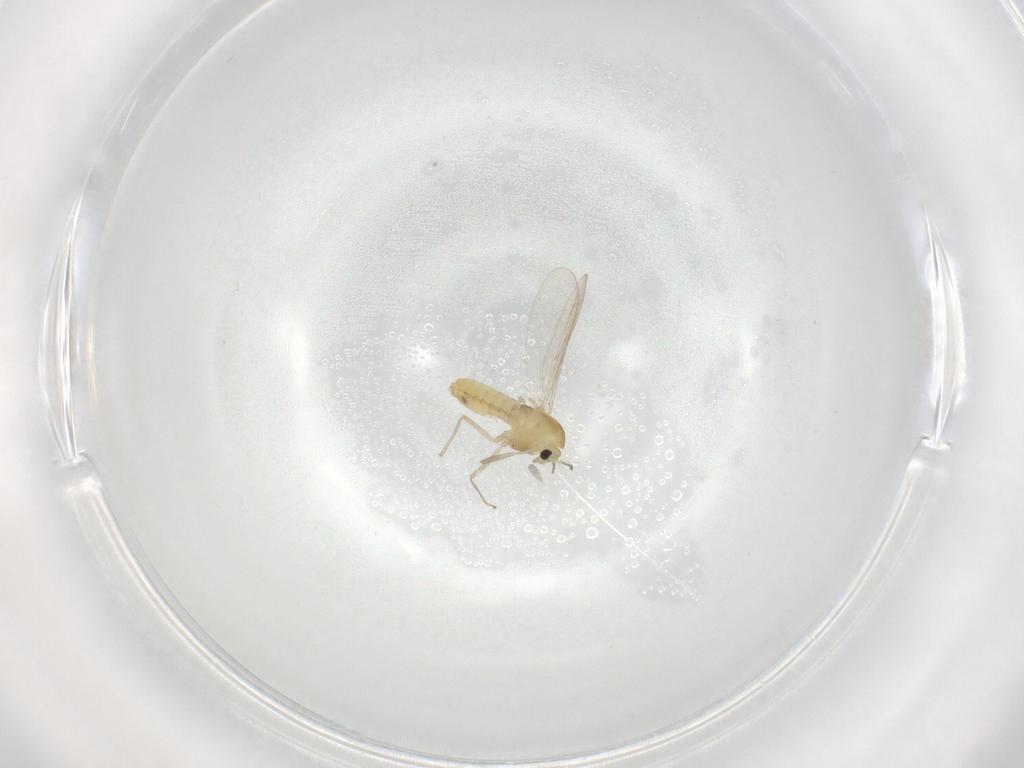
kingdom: Animalia
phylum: Arthropoda
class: Insecta
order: Diptera
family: Chironomidae
